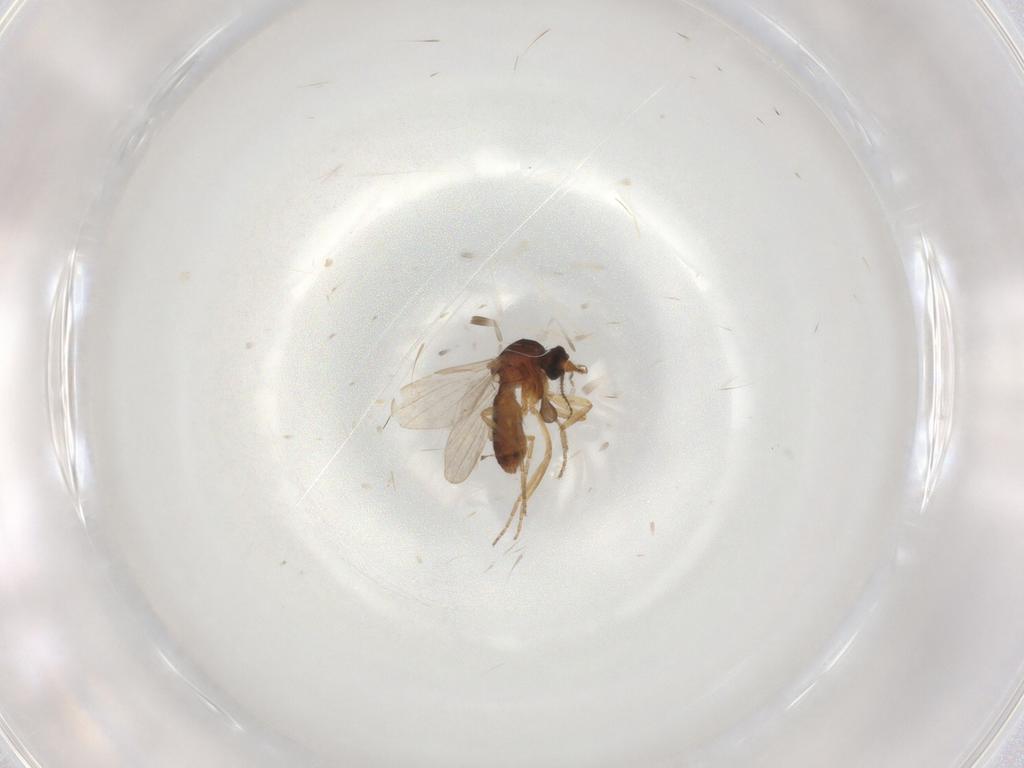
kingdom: Animalia
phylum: Arthropoda
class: Insecta
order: Diptera
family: Ceratopogonidae
